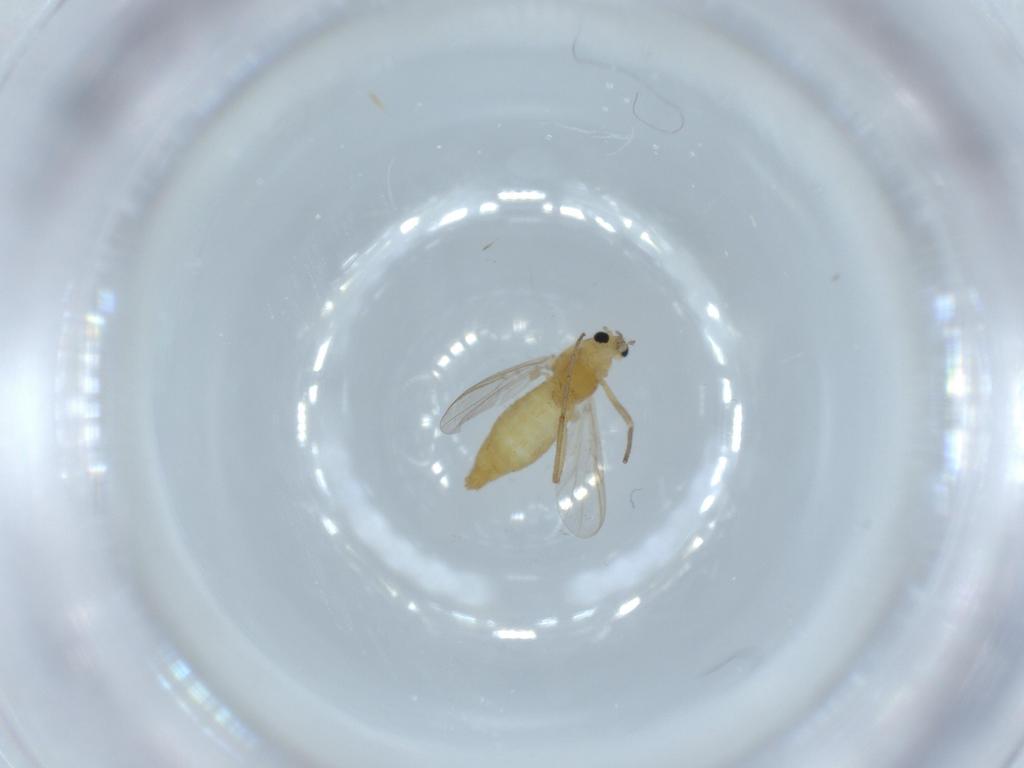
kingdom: Animalia
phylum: Arthropoda
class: Insecta
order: Diptera
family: Chironomidae
